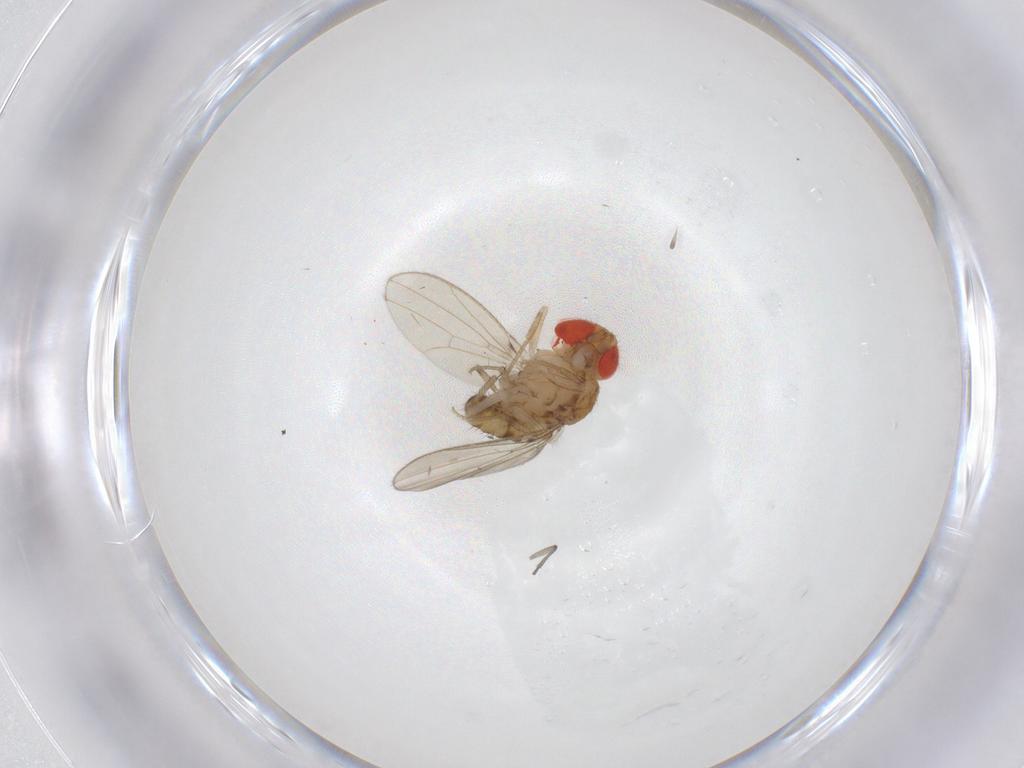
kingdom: Animalia
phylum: Arthropoda
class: Insecta
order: Diptera
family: Drosophilidae
